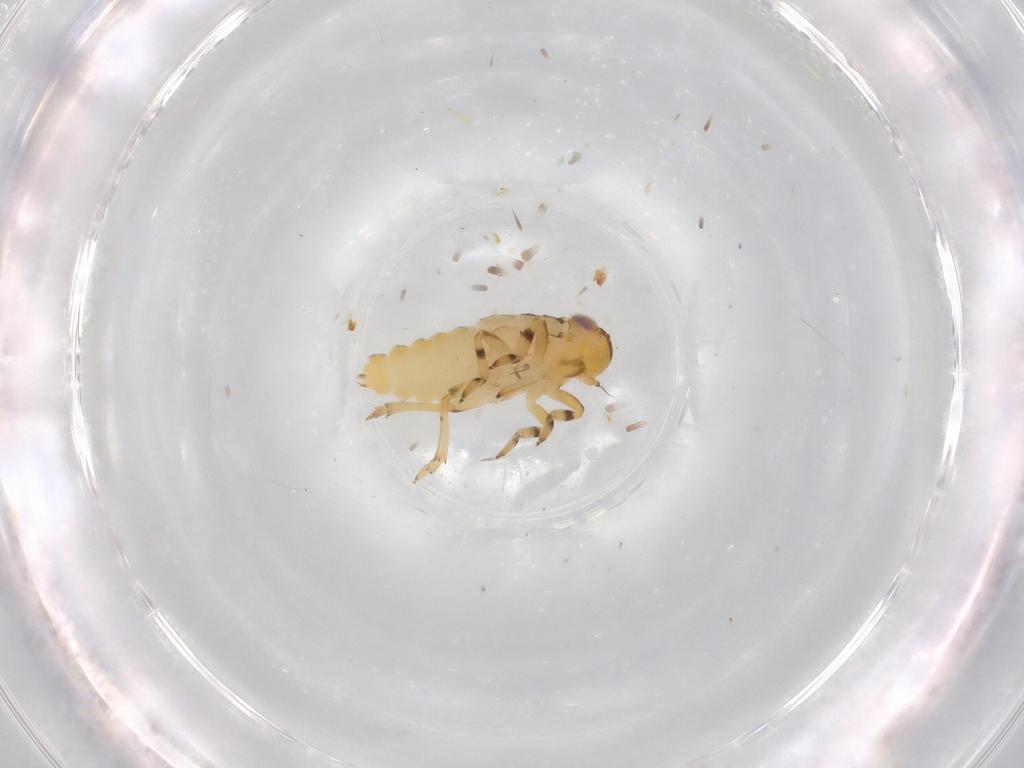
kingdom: Animalia
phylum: Arthropoda
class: Insecta
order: Hemiptera
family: Issidae
